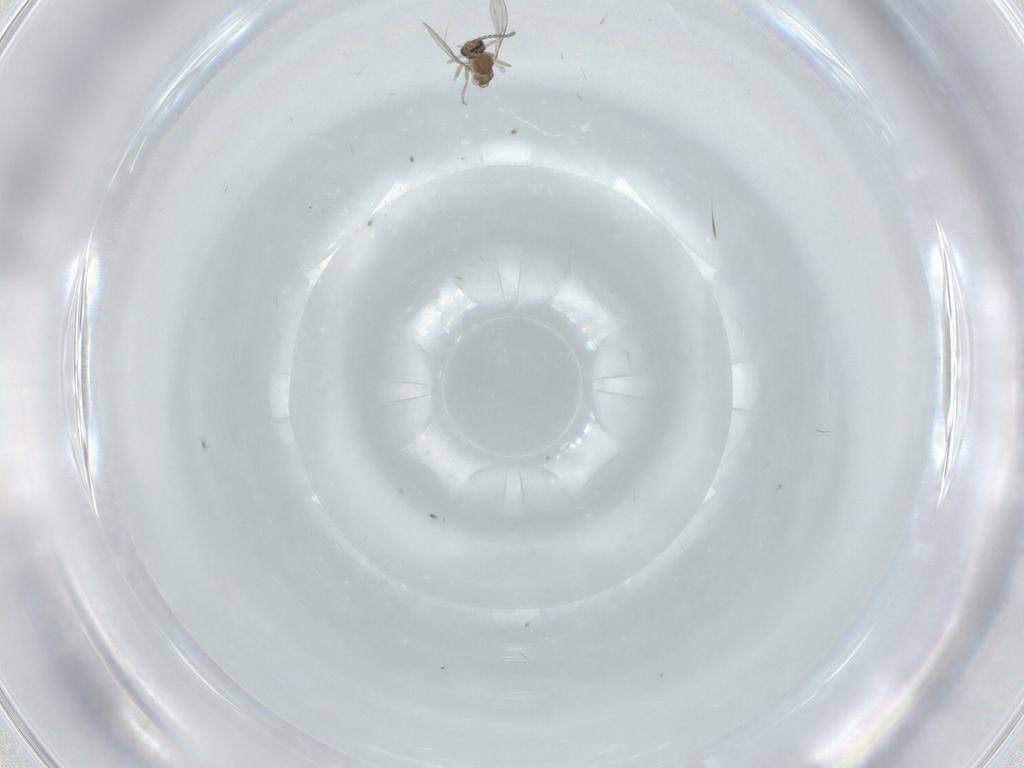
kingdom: Animalia
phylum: Arthropoda
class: Insecta
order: Diptera
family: Cecidomyiidae
